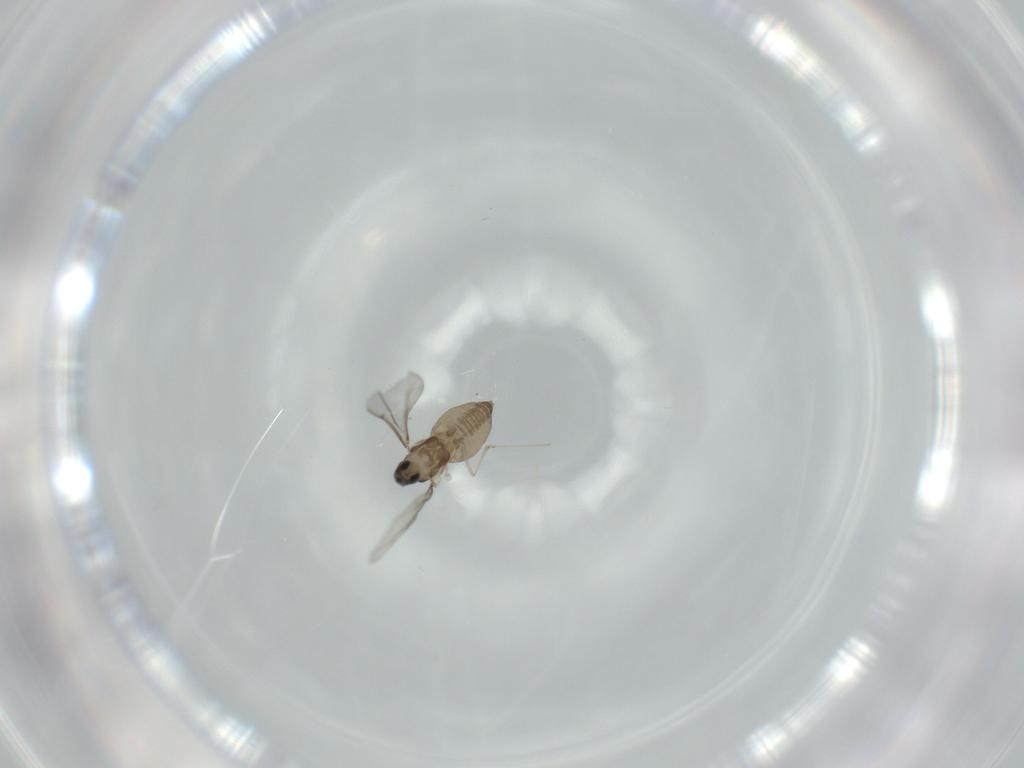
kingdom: Animalia
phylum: Arthropoda
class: Insecta
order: Diptera
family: Cecidomyiidae
